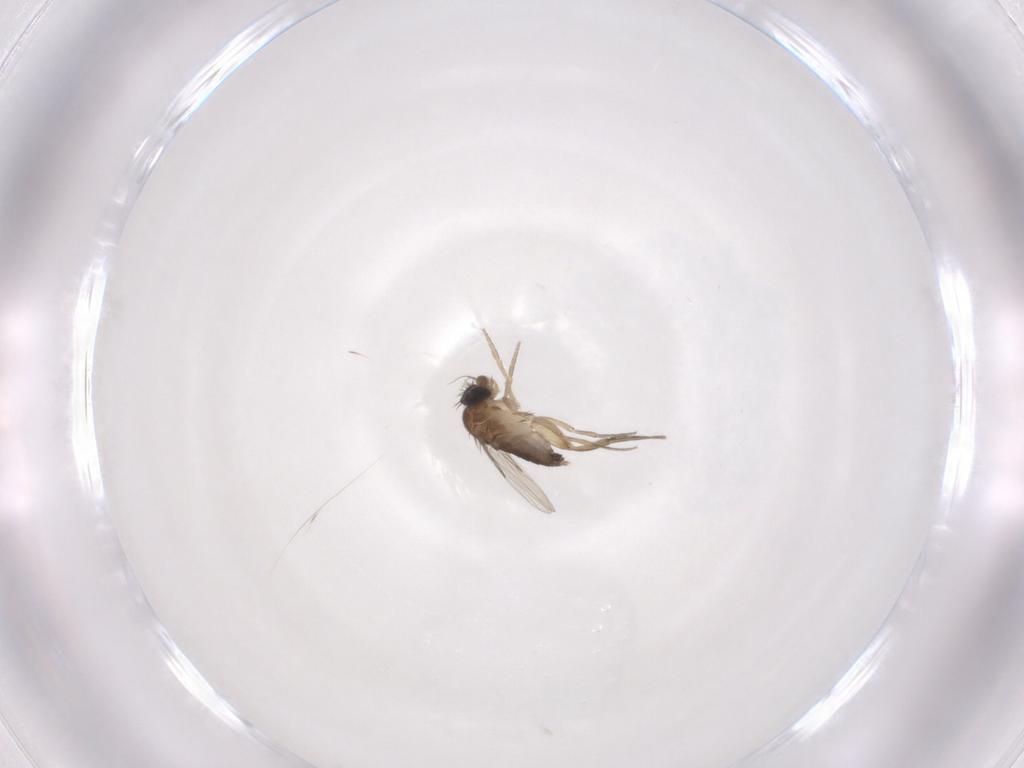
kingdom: Animalia
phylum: Arthropoda
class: Insecta
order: Diptera
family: Phoridae
